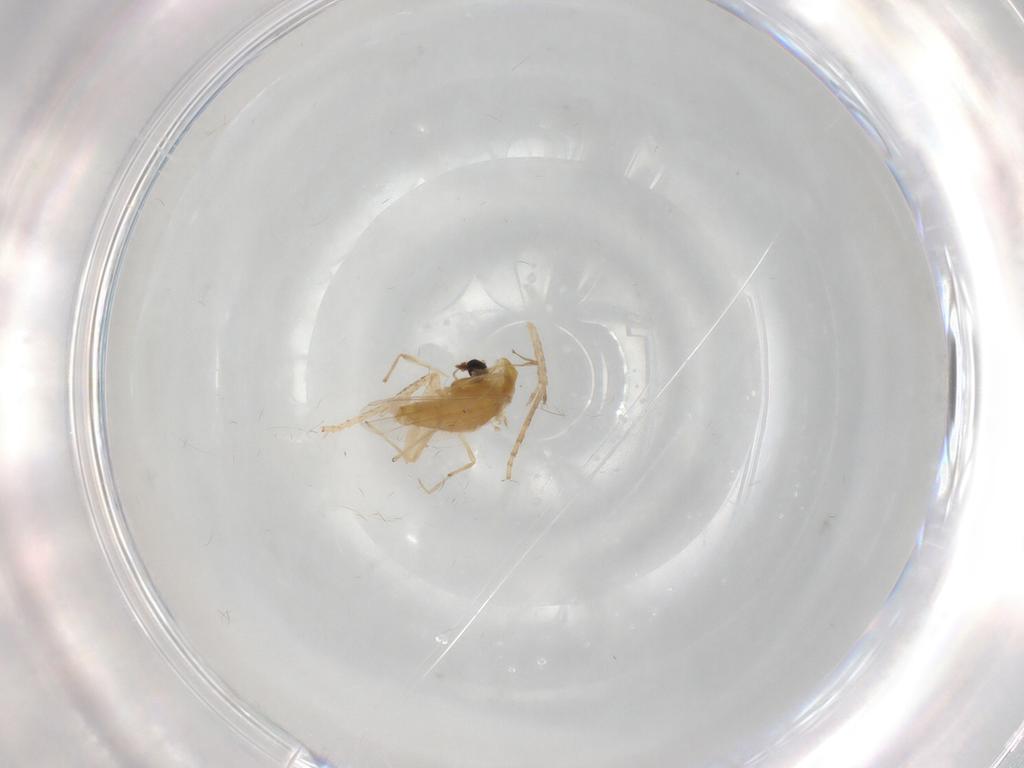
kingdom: Animalia
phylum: Arthropoda
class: Insecta
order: Diptera
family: Chironomidae
